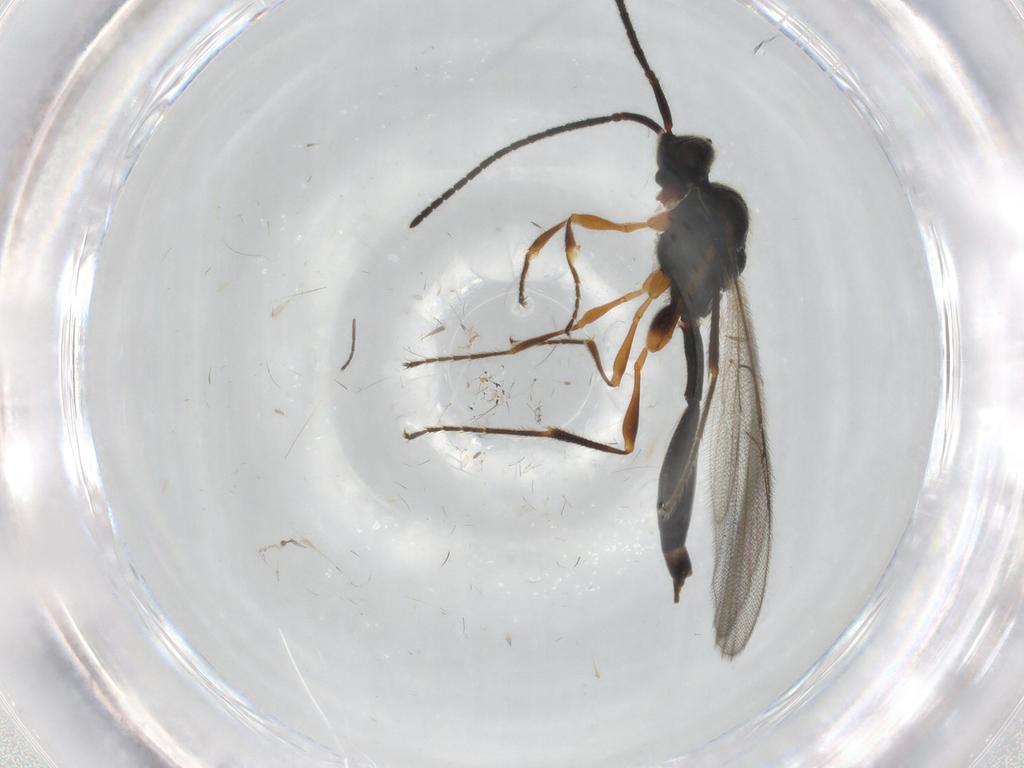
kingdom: Animalia
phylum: Arthropoda
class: Insecta
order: Hymenoptera
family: Diapriidae
